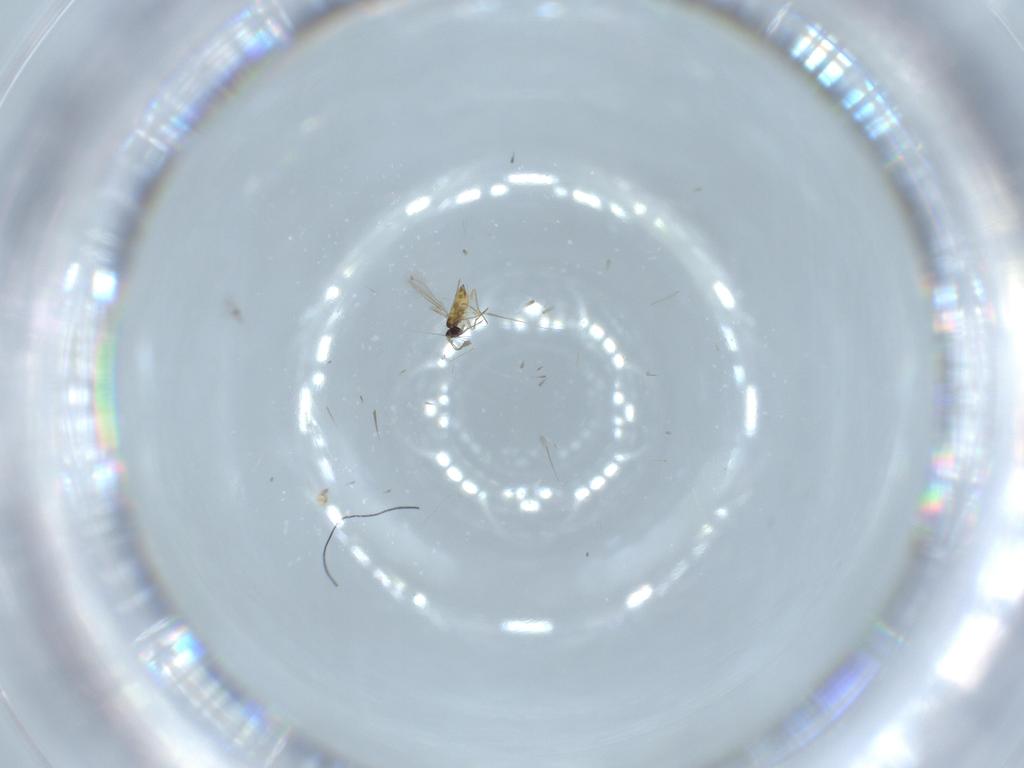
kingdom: Animalia
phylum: Arthropoda
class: Insecta
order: Hymenoptera
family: Mymaridae
